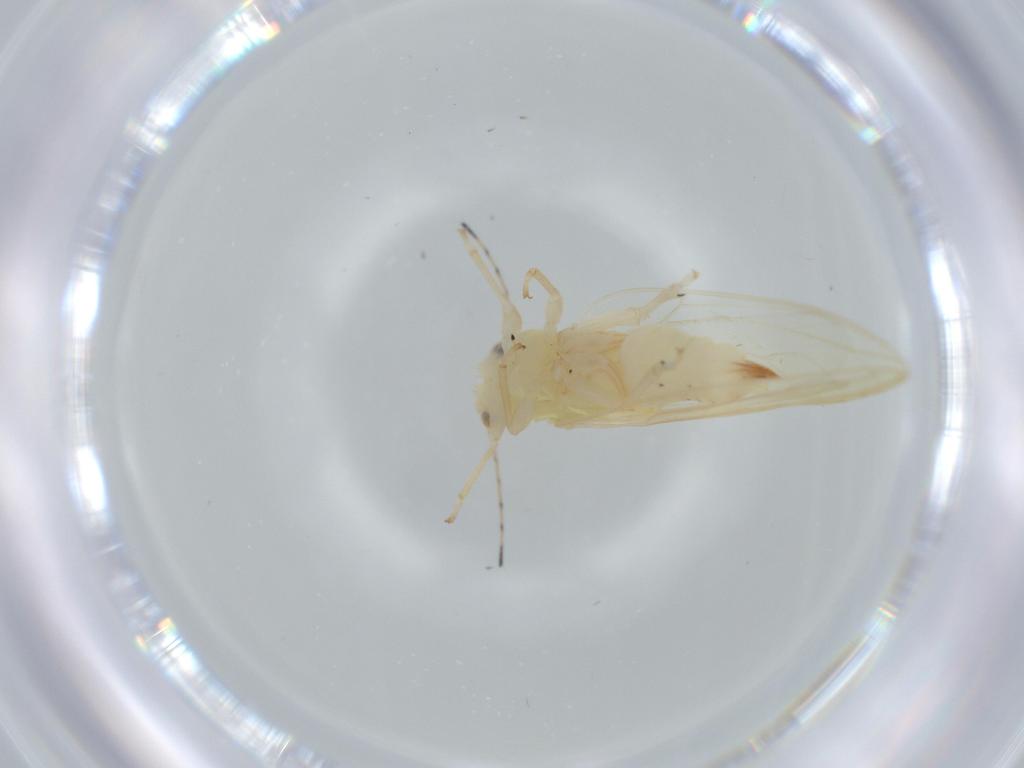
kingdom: Animalia
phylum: Arthropoda
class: Insecta
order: Hemiptera
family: Triozidae
